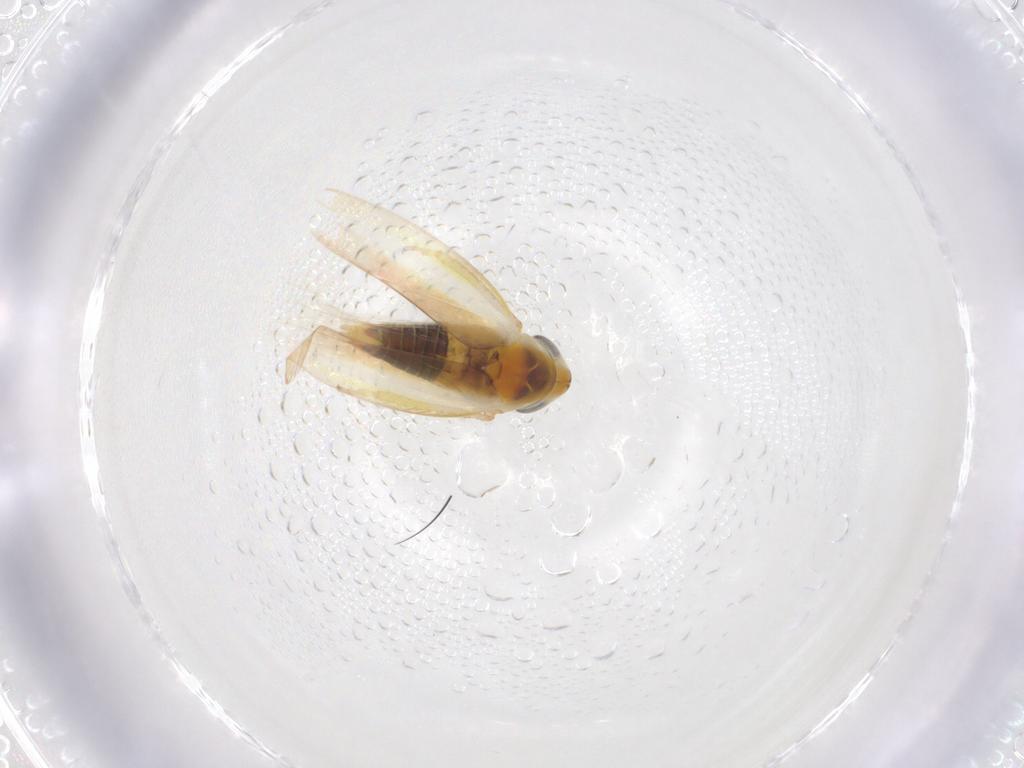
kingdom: Animalia
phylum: Arthropoda
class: Insecta
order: Hemiptera
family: Cicadellidae
